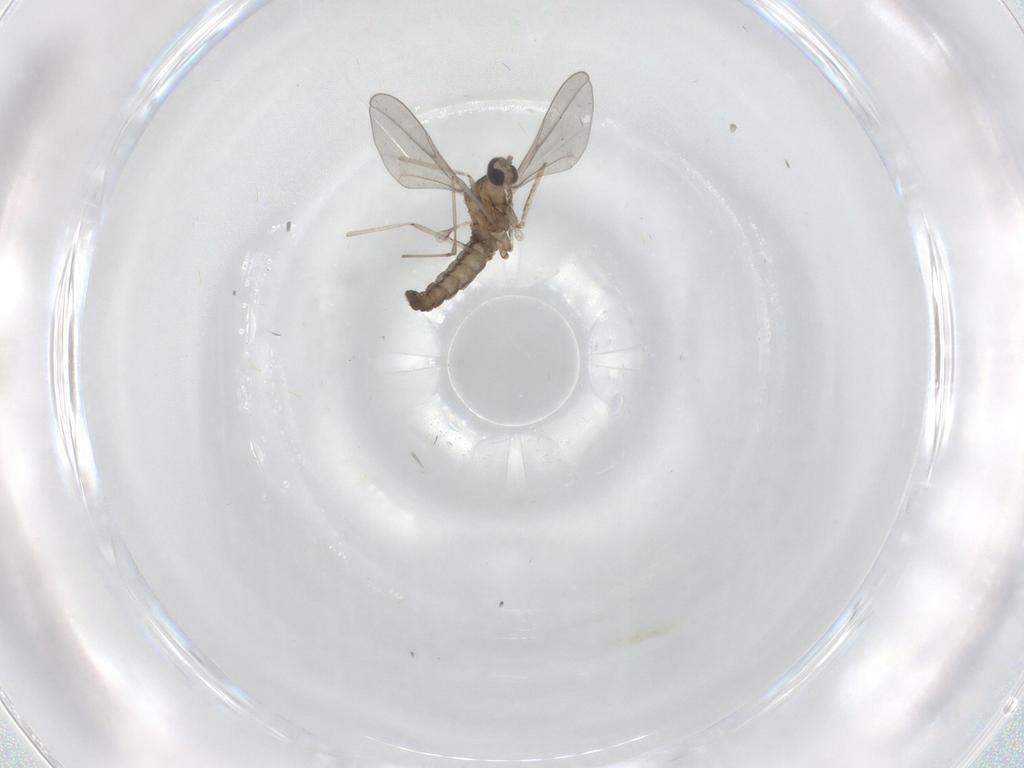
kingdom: Animalia
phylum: Arthropoda
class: Insecta
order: Diptera
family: Cecidomyiidae
